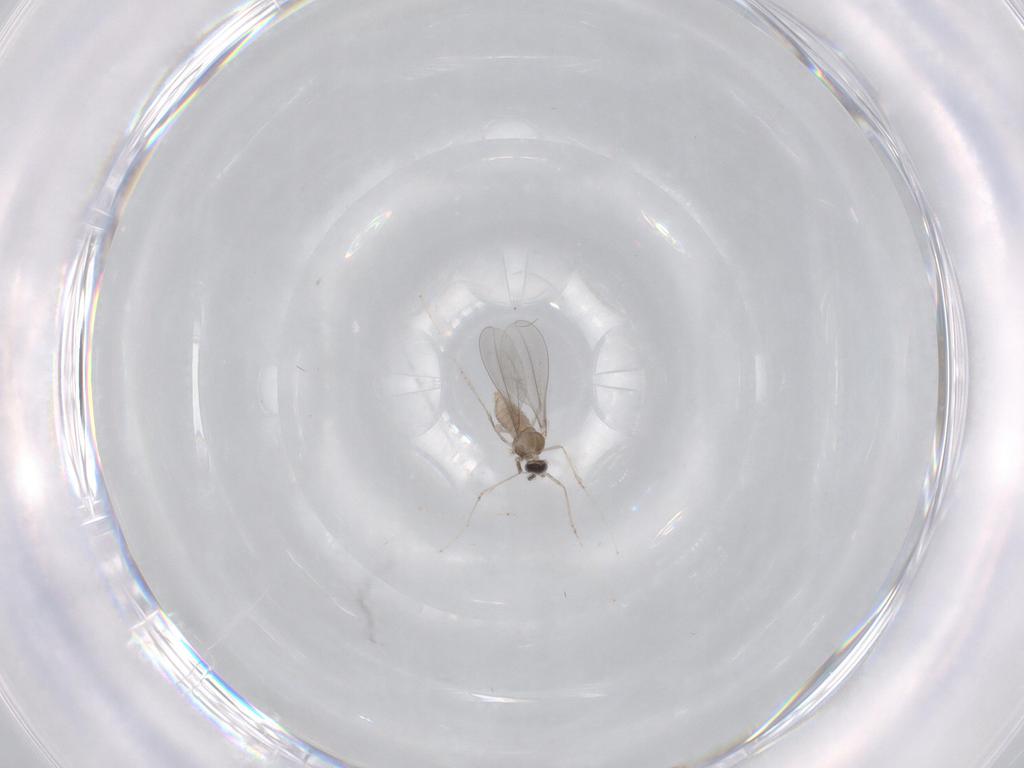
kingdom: Animalia
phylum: Arthropoda
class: Insecta
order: Diptera
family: Cecidomyiidae
